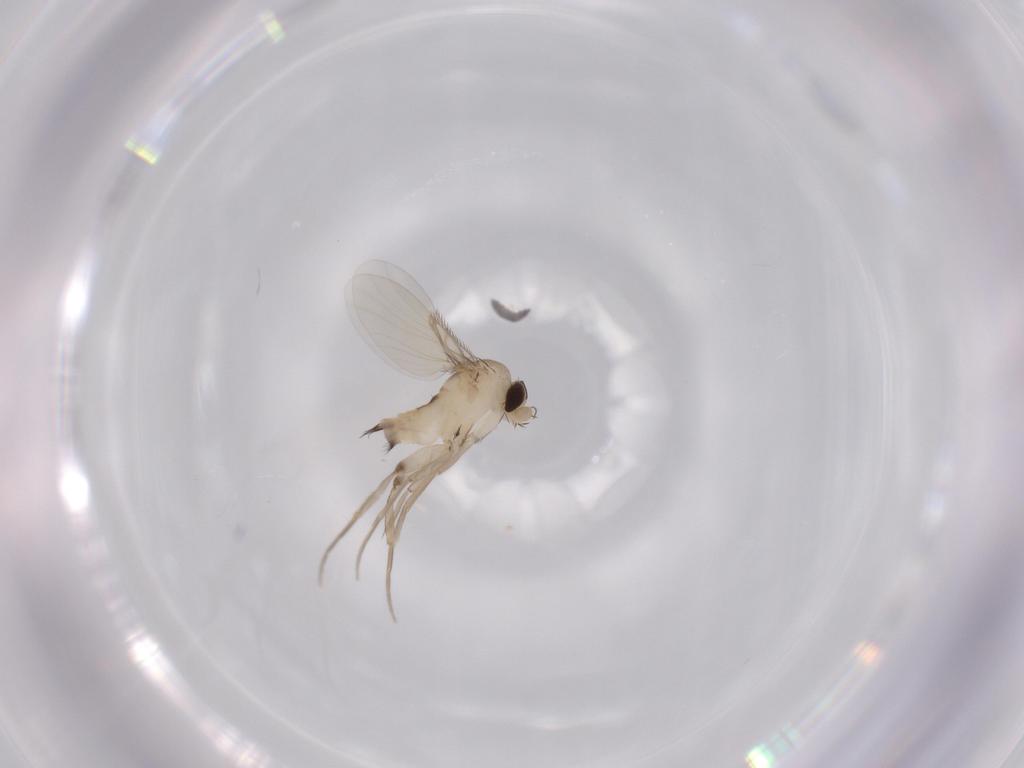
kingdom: Animalia
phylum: Arthropoda
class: Insecta
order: Diptera
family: Phoridae
